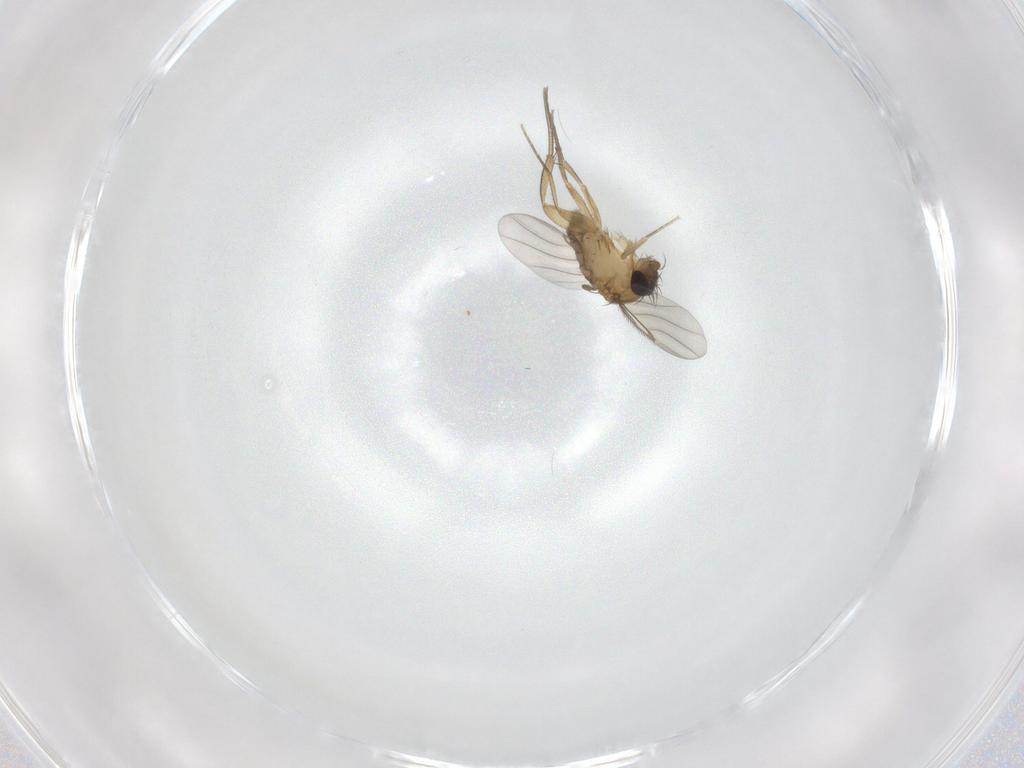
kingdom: Animalia
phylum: Arthropoda
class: Insecta
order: Diptera
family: Phoridae
